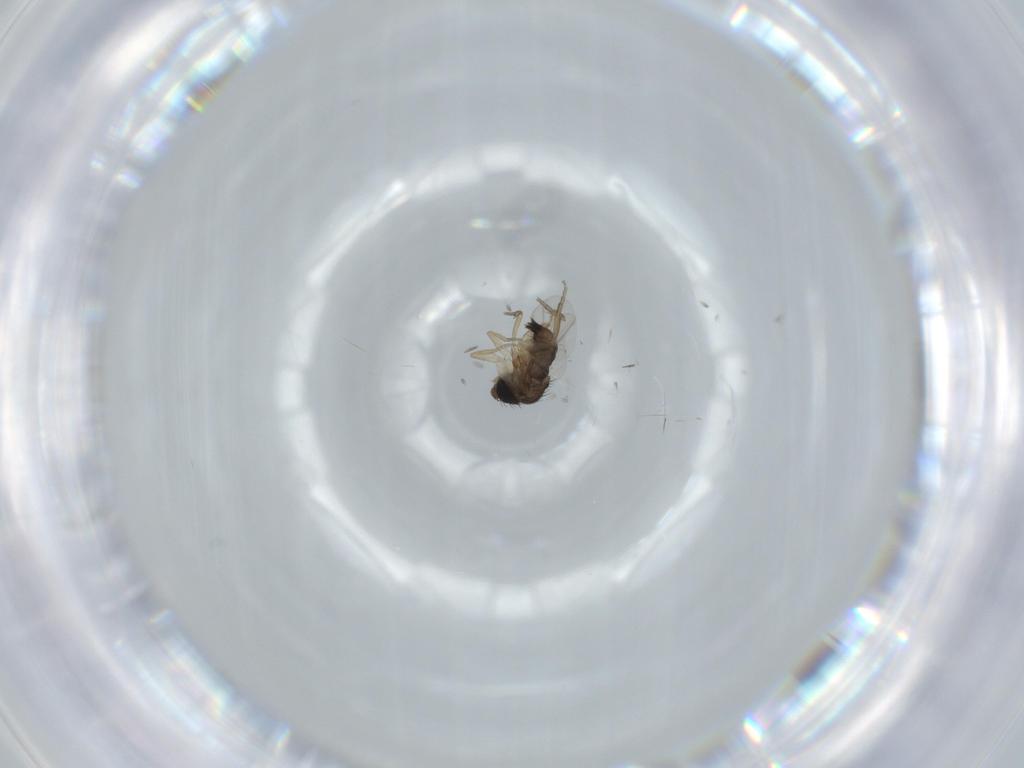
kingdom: Animalia
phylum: Arthropoda
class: Insecta
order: Diptera
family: Phoridae
